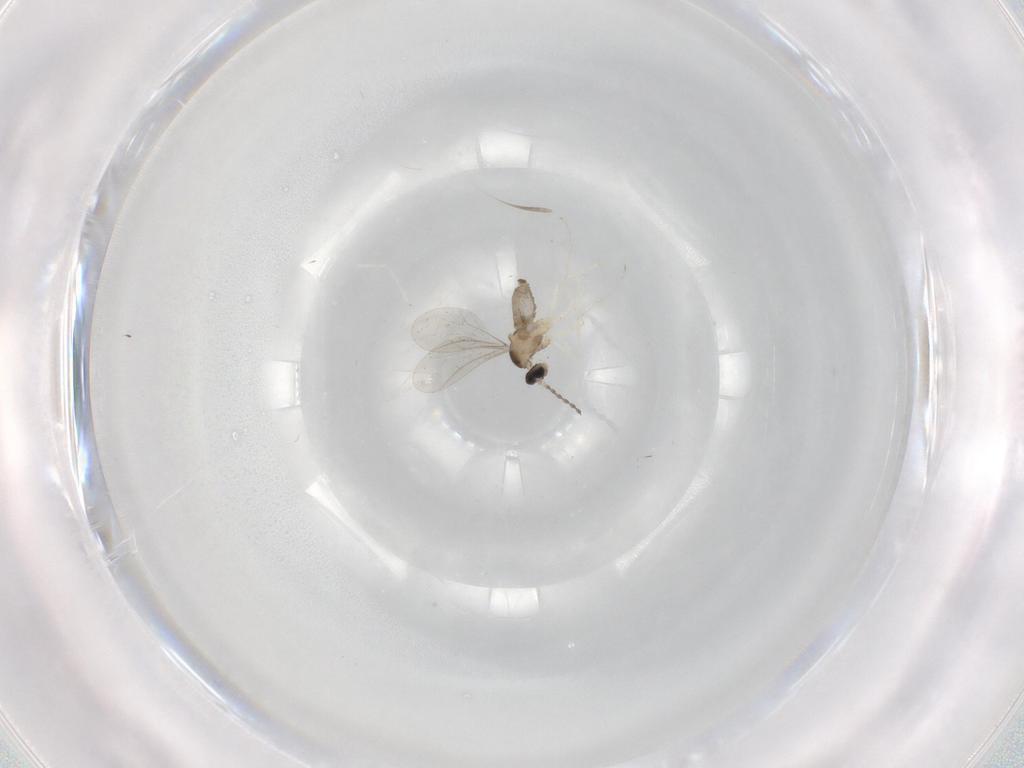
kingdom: Animalia
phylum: Arthropoda
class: Insecta
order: Diptera
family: Cecidomyiidae
